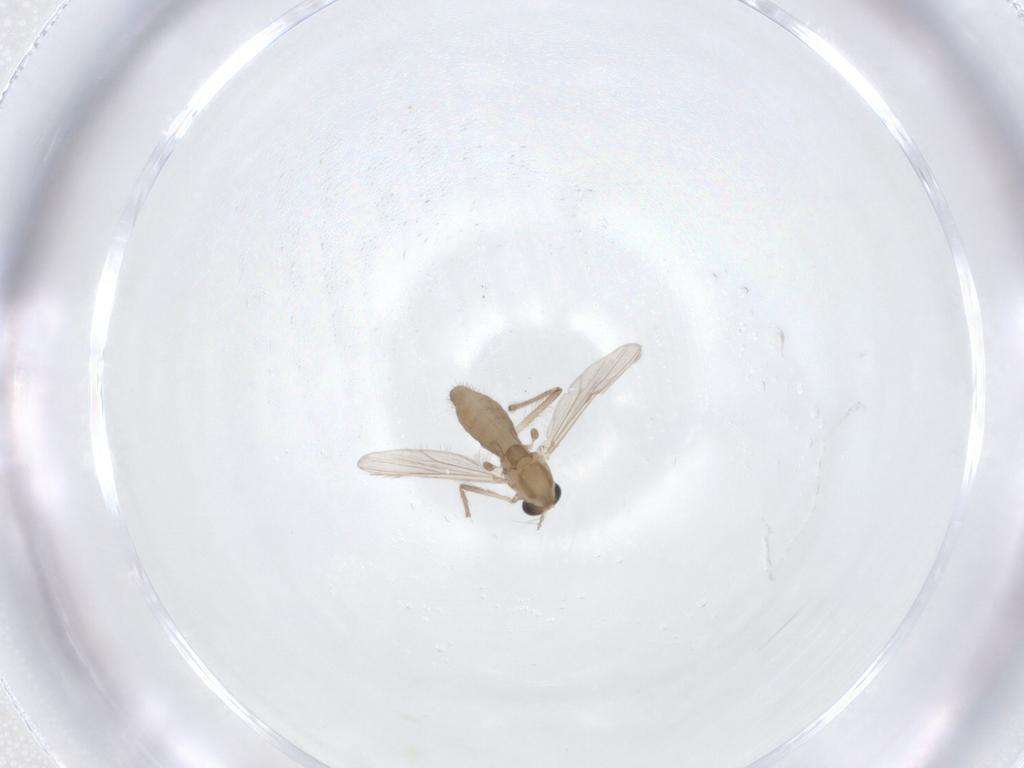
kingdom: Animalia
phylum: Arthropoda
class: Insecta
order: Diptera
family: Chironomidae
